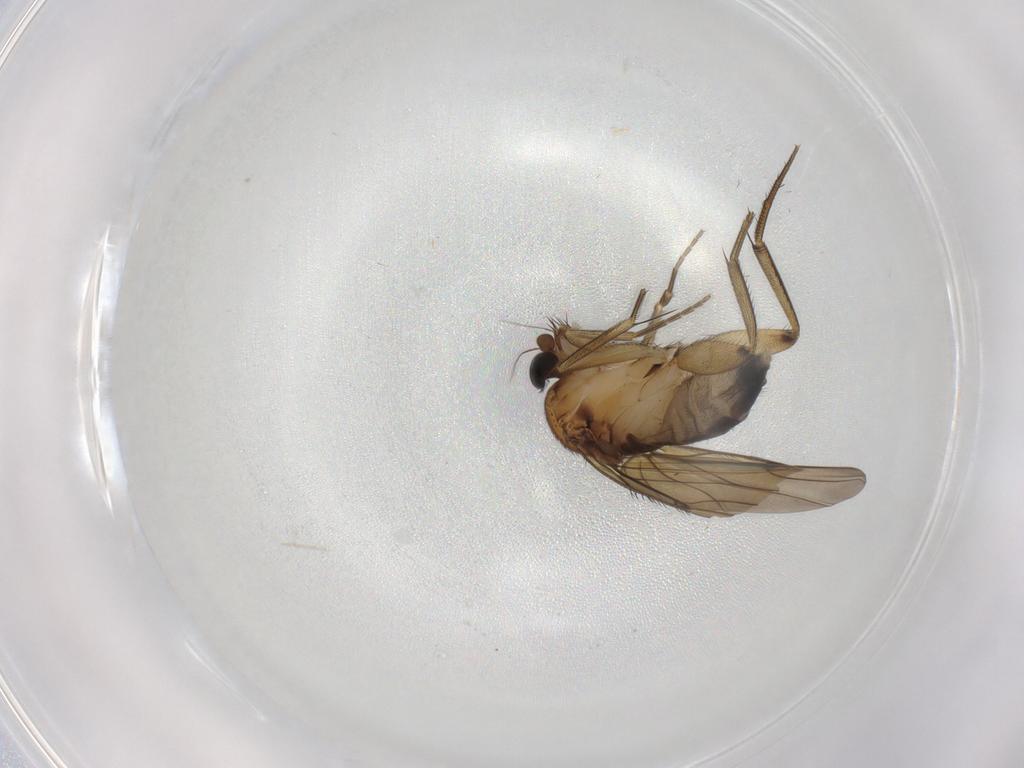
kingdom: Animalia
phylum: Arthropoda
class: Insecta
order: Diptera
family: Phoridae
